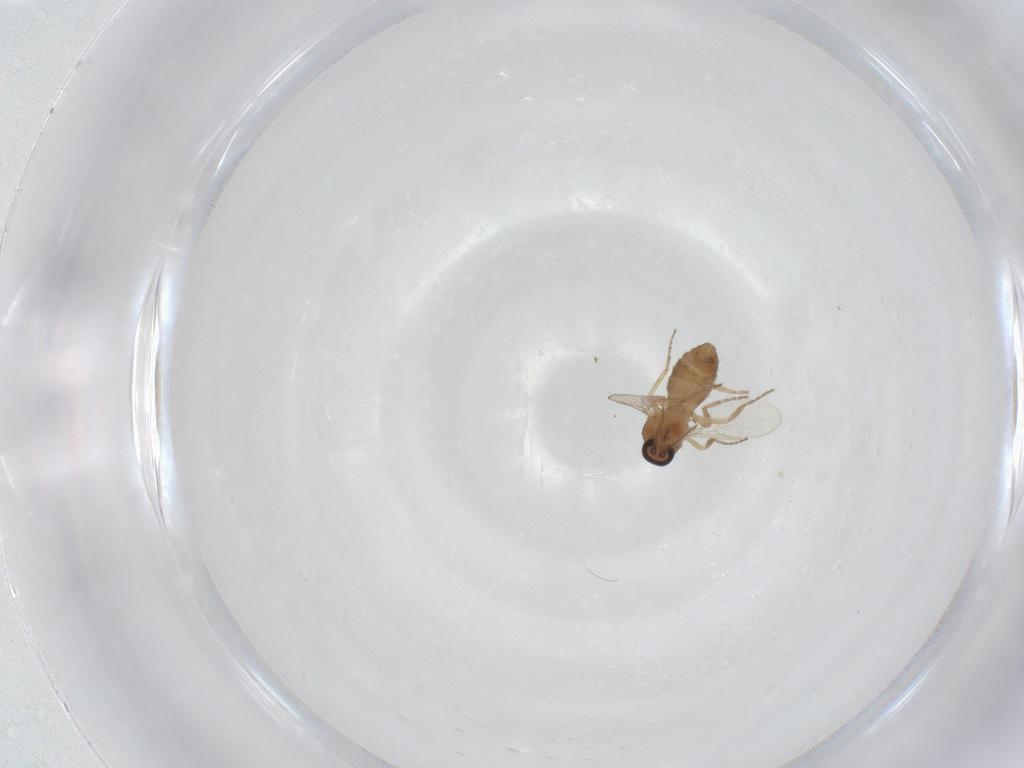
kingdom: Animalia
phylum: Arthropoda
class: Insecta
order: Diptera
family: Ceratopogonidae
